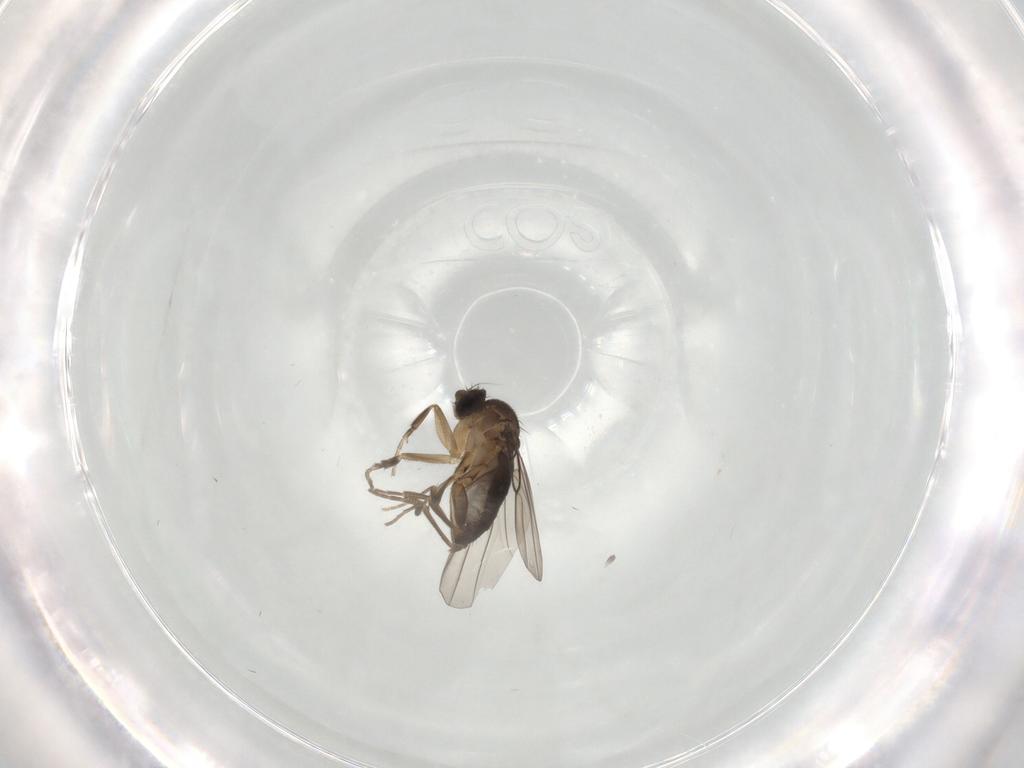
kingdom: Animalia
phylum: Arthropoda
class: Insecta
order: Diptera
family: Phoridae
